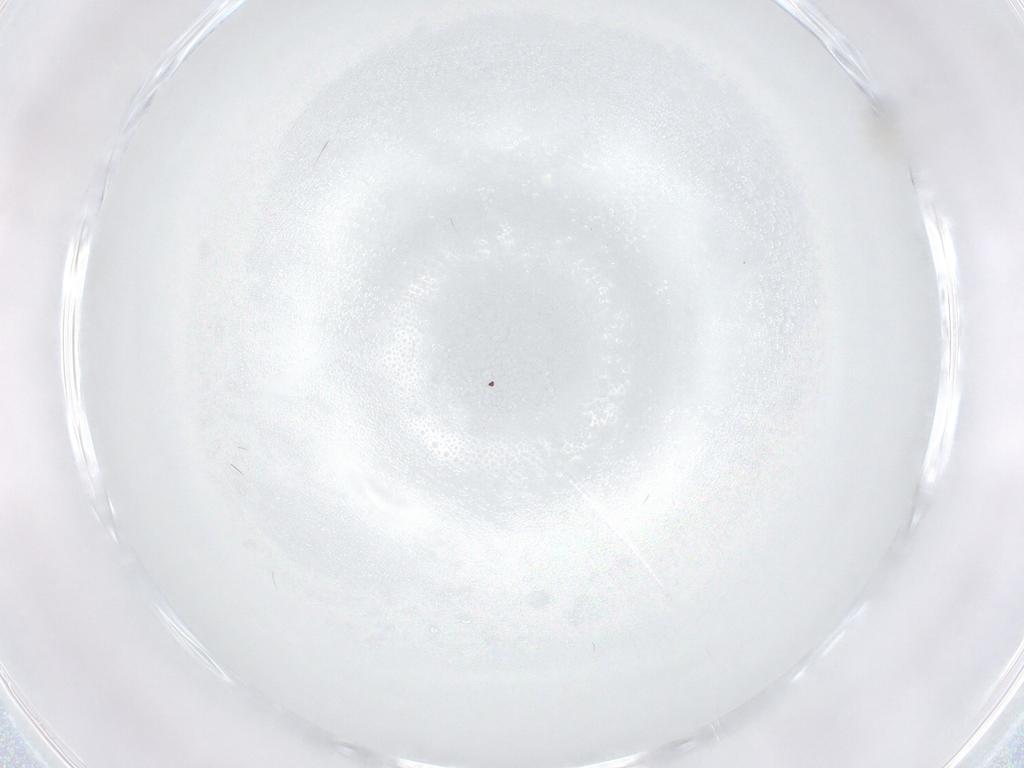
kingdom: Animalia
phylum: Arthropoda
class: Insecta
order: Diptera
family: Cecidomyiidae
